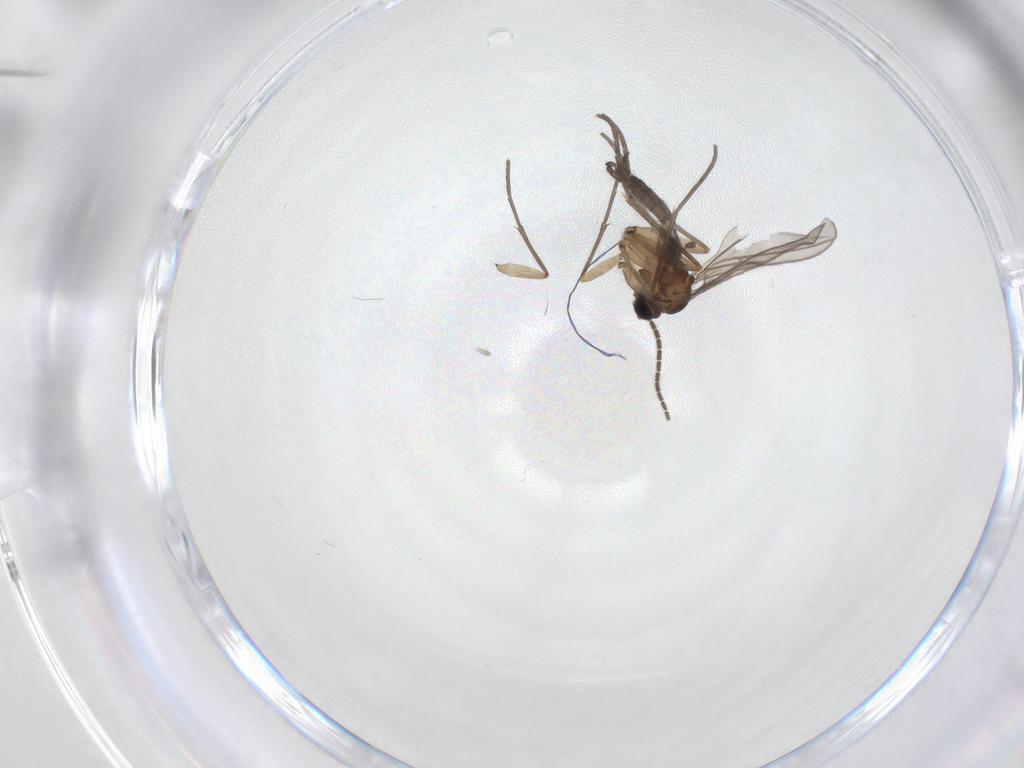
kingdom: Animalia
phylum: Arthropoda
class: Insecta
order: Diptera
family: Sciaridae
